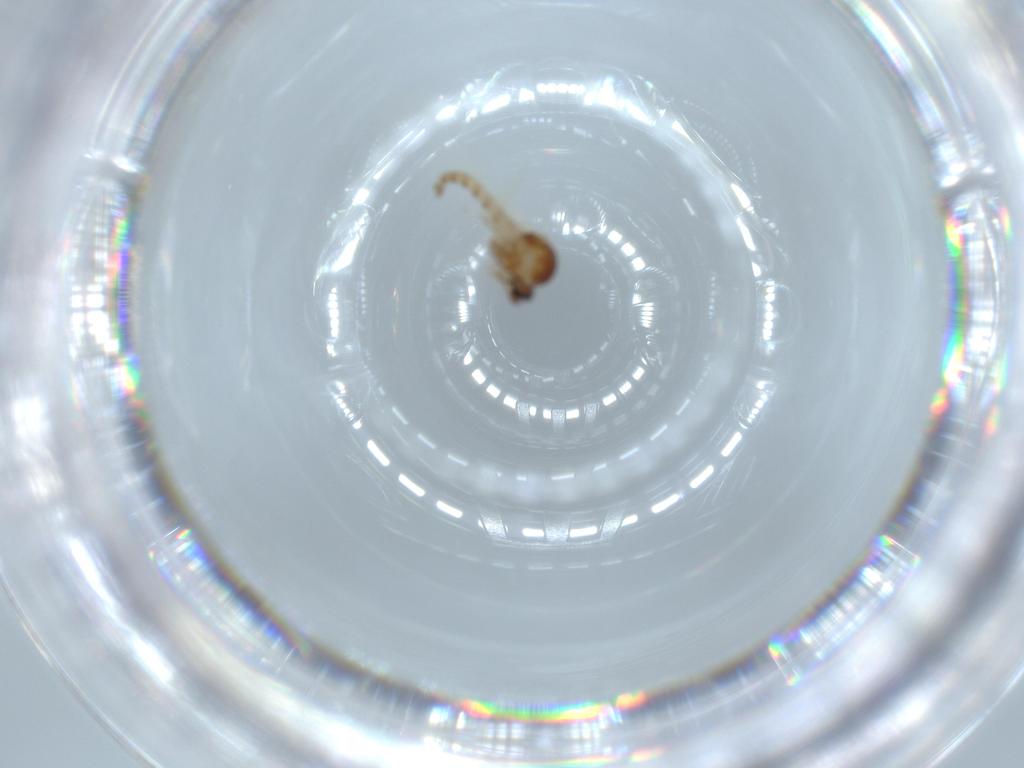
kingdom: Animalia
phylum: Arthropoda
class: Insecta
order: Diptera
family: Ceratopogonidae
